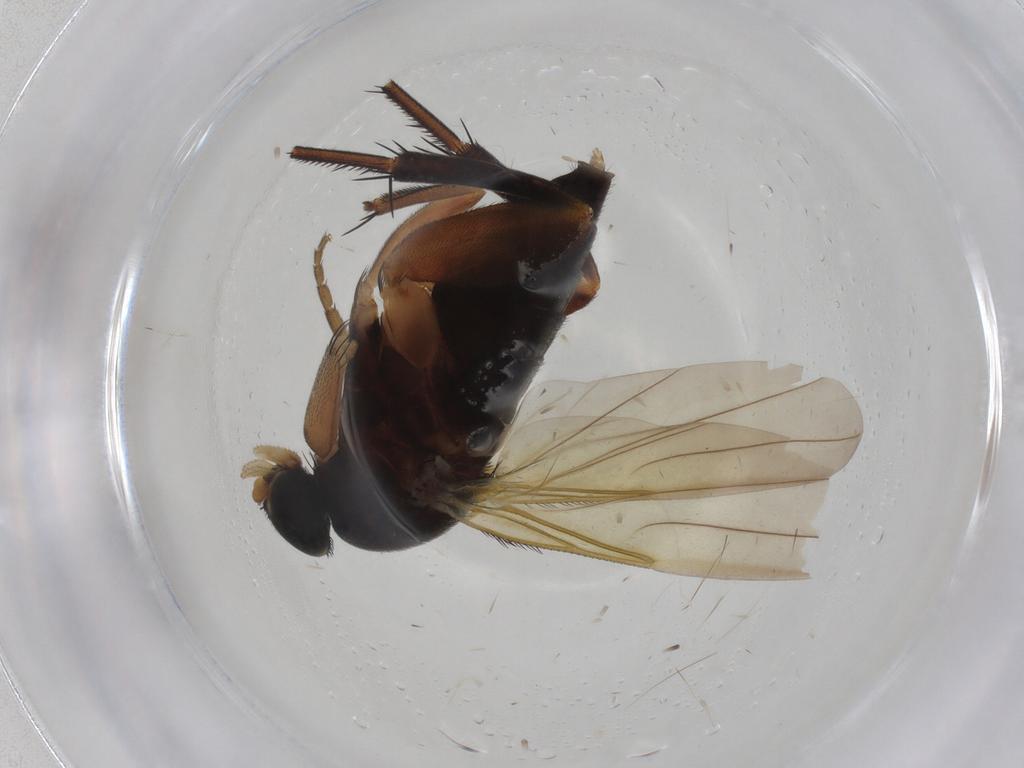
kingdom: Animalia
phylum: Arthropoda
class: Insecta
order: Diptera
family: Phoridae
